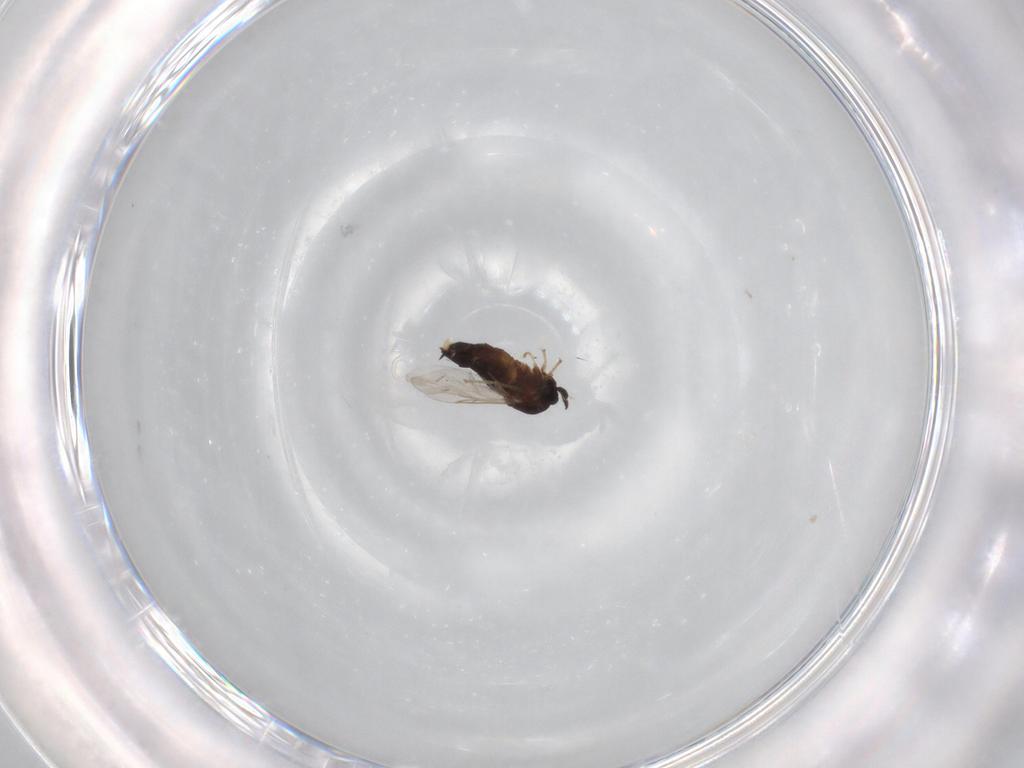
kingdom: Animalia
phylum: Arthropoda
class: Insecta
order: Diptera
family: Scatopsidae
